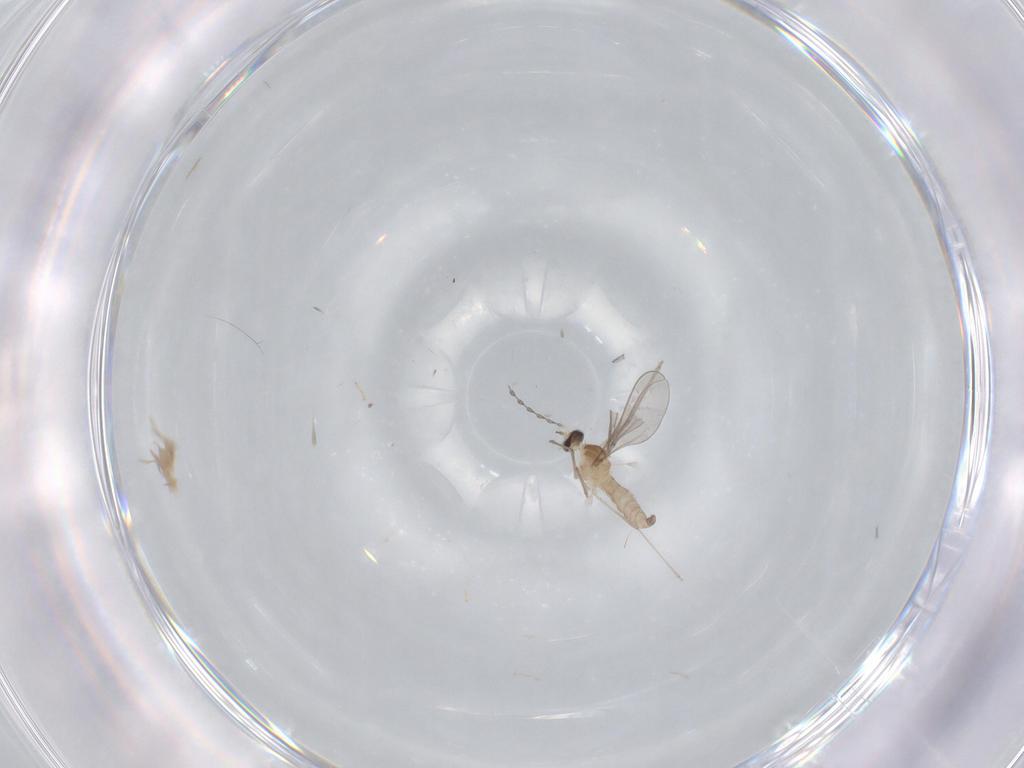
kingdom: Animalia
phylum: Arthropoda
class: Insecta
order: Diptera
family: Cecidomyiidae
